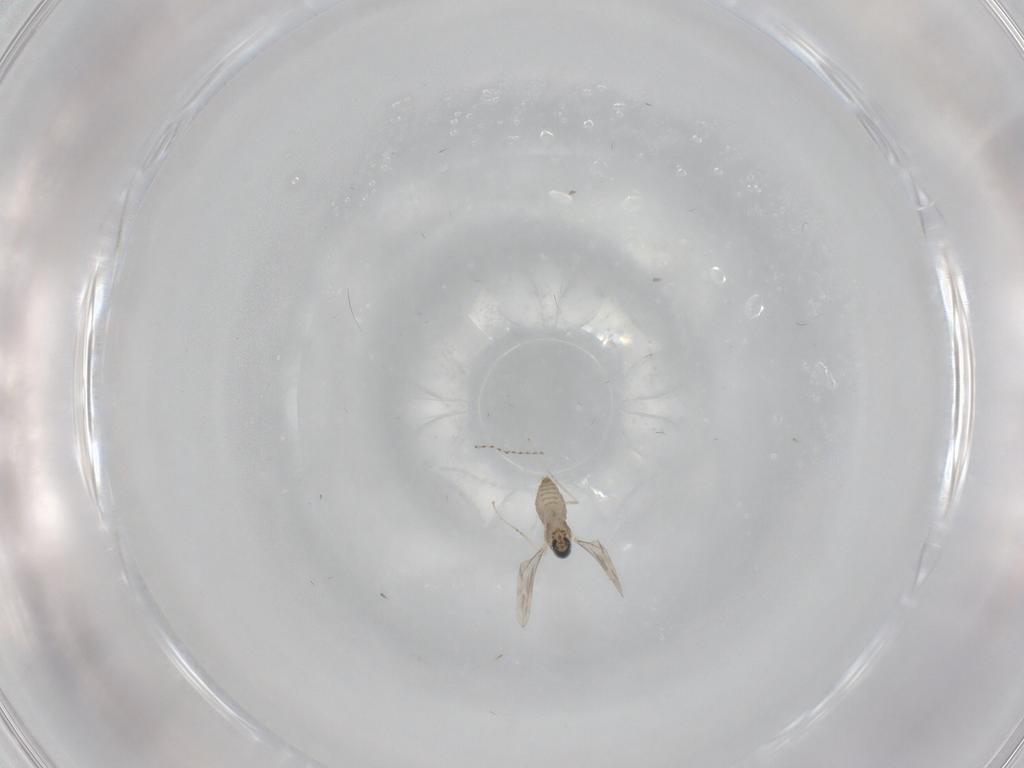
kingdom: Animalia
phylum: Arthropoda
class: Insecta
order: Diptera
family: Cecidomyiidae
